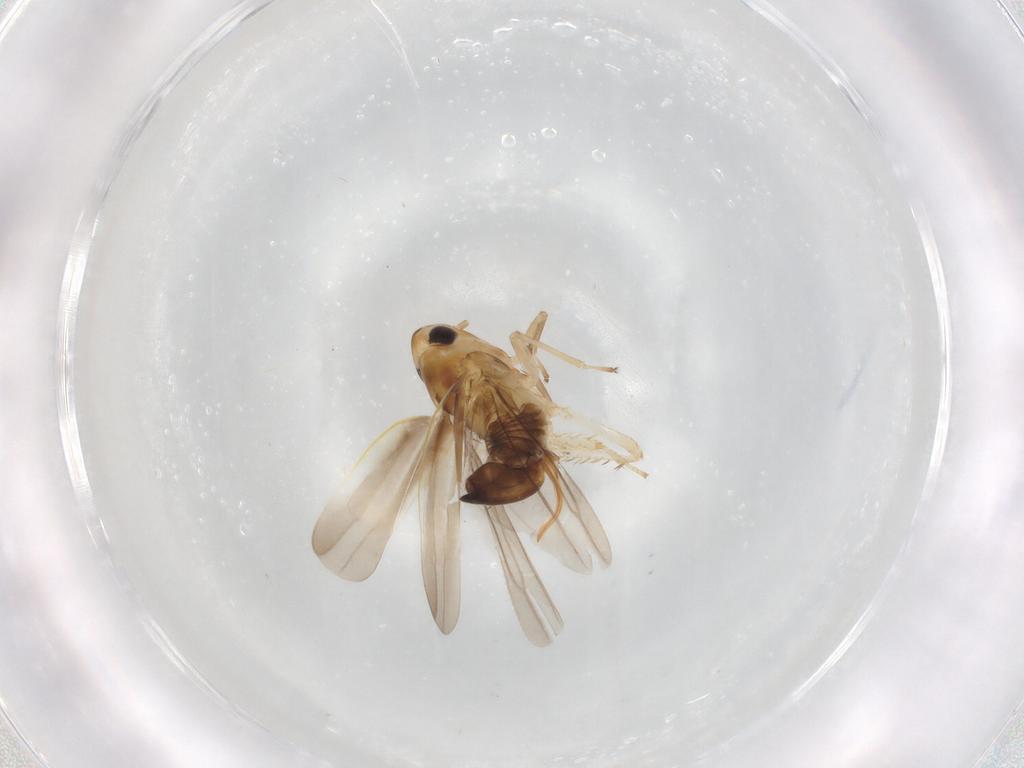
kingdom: Animalia
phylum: Arthropoda
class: Insecta
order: Hemiptera
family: Cicadellidae
